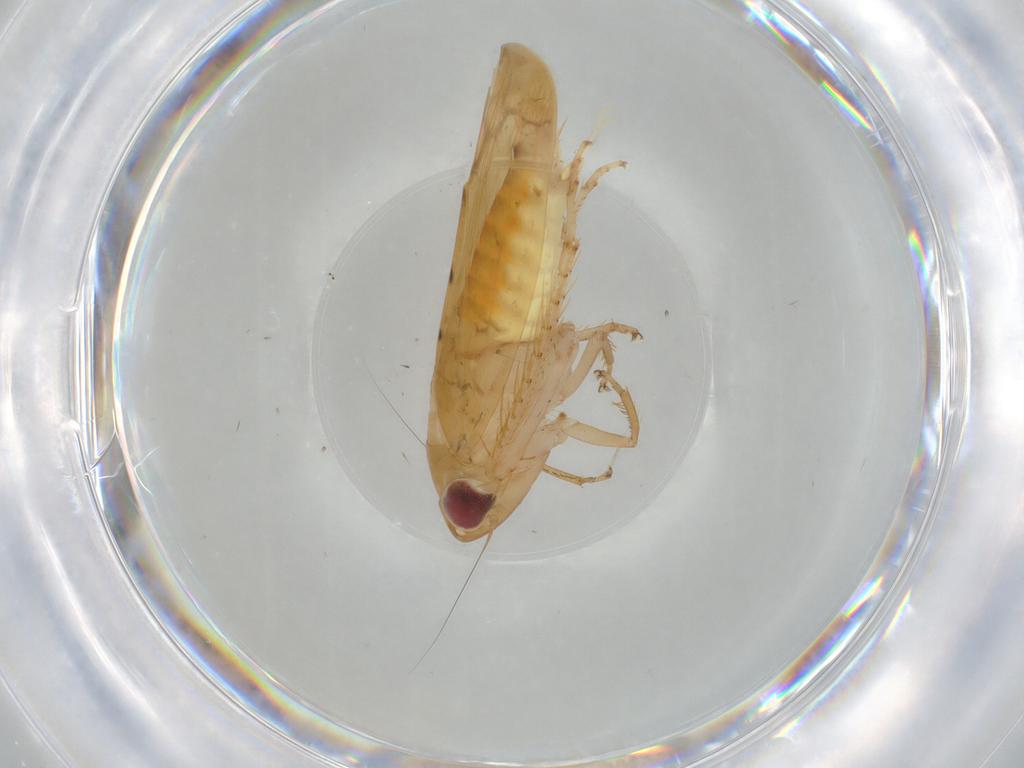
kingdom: Animalia
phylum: Arthropoda
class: Insecta
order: Hemiptera
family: Cicadellidae
